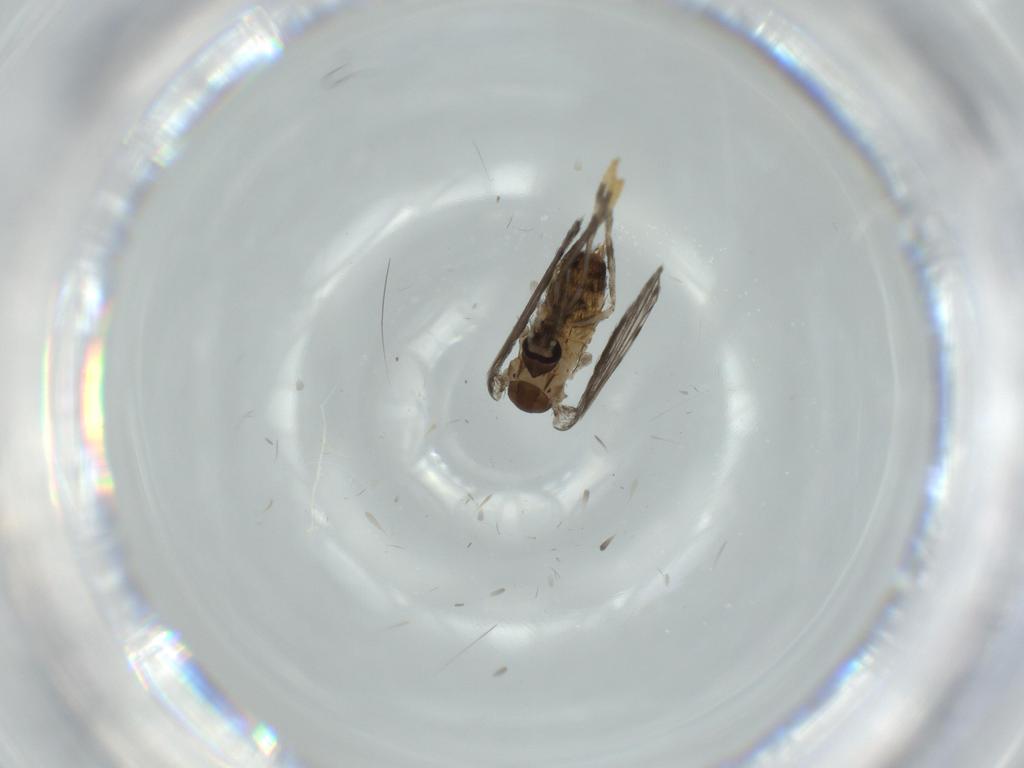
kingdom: Animalia
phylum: Arthropoda
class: Insecta
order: Diptera
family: Psychodidae
